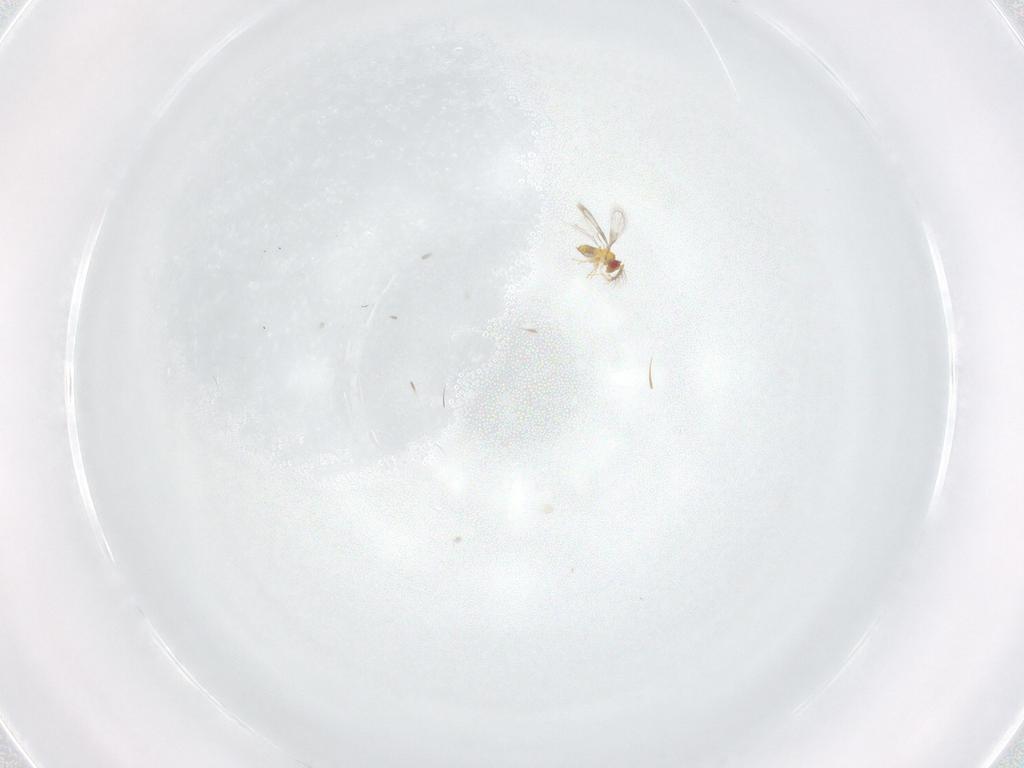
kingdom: Animalia
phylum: Arthropoda
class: Insecta
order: Hymenoptera
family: Trichogrammatidae
